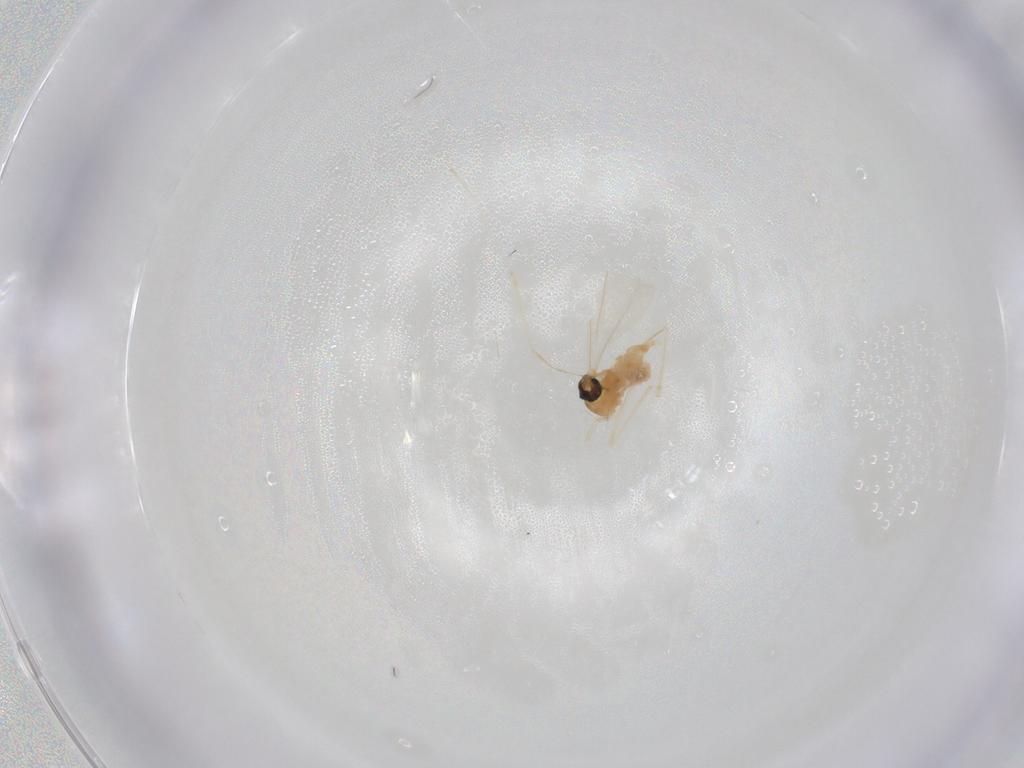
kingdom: Animalia
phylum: Arthropoda
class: Insecta
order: Diptera
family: Cecidomyiidae
